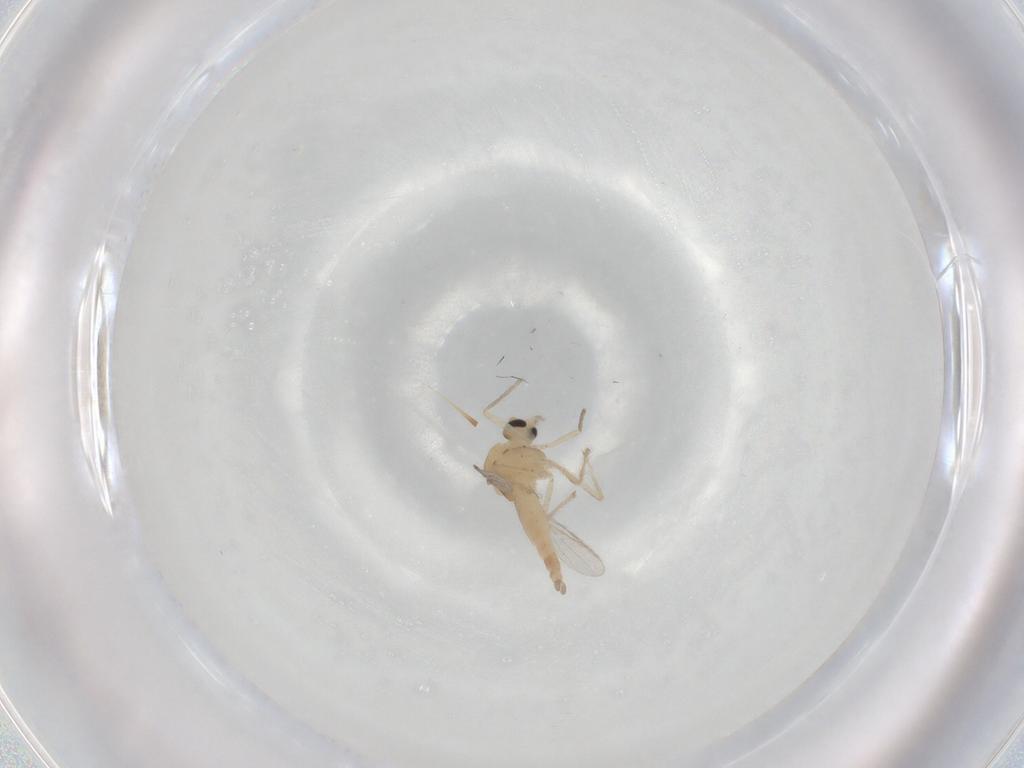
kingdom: Animalia
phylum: Arthropoda
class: Insecta
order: Diptera
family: Chironomidae
